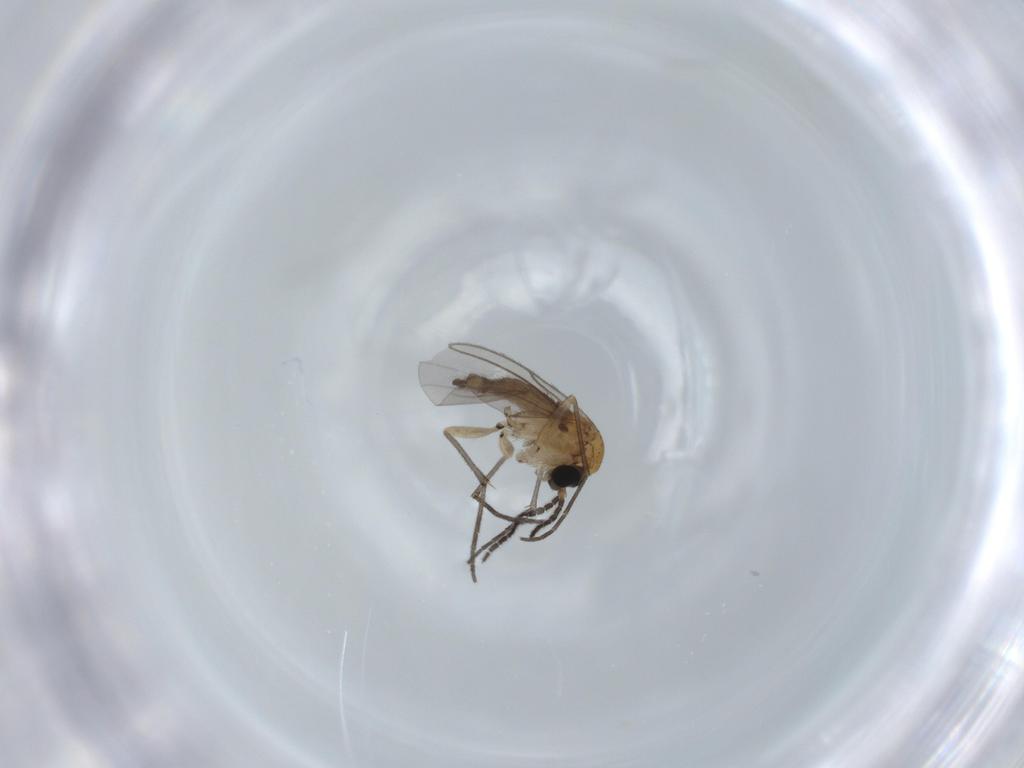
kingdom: Animalia
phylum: Arthropoda
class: Insecta
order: Diptera
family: Sciaridae
